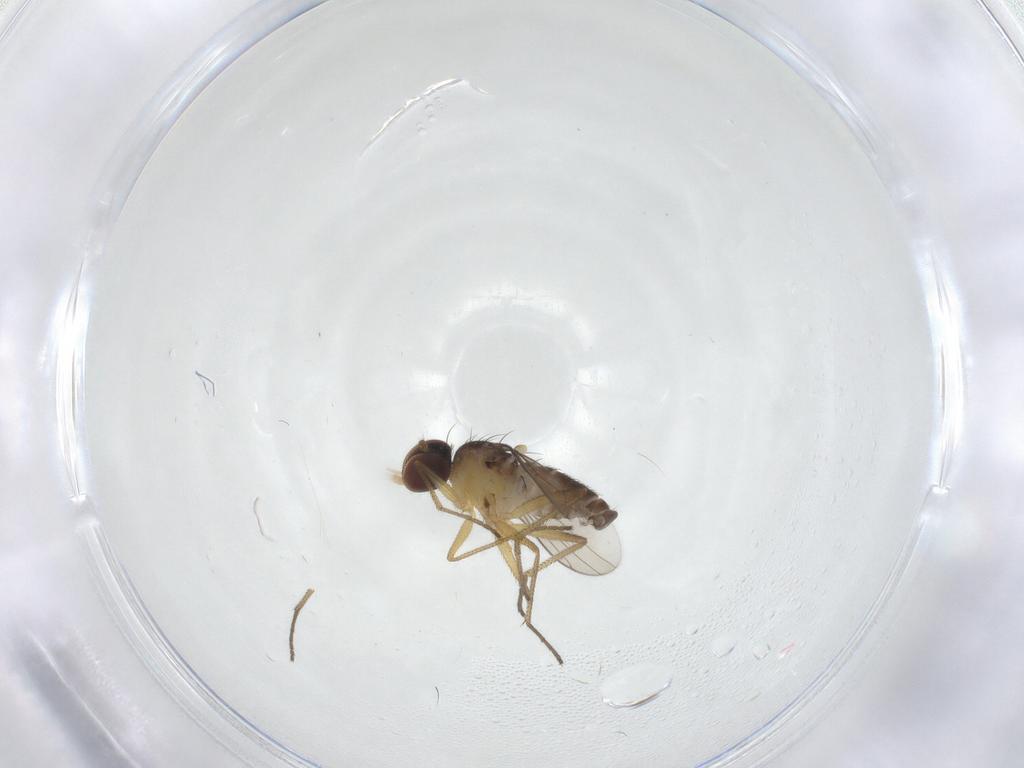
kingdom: Animalia
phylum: Arthropoda
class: Insecta
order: Diptera
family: Dolichopodidae
